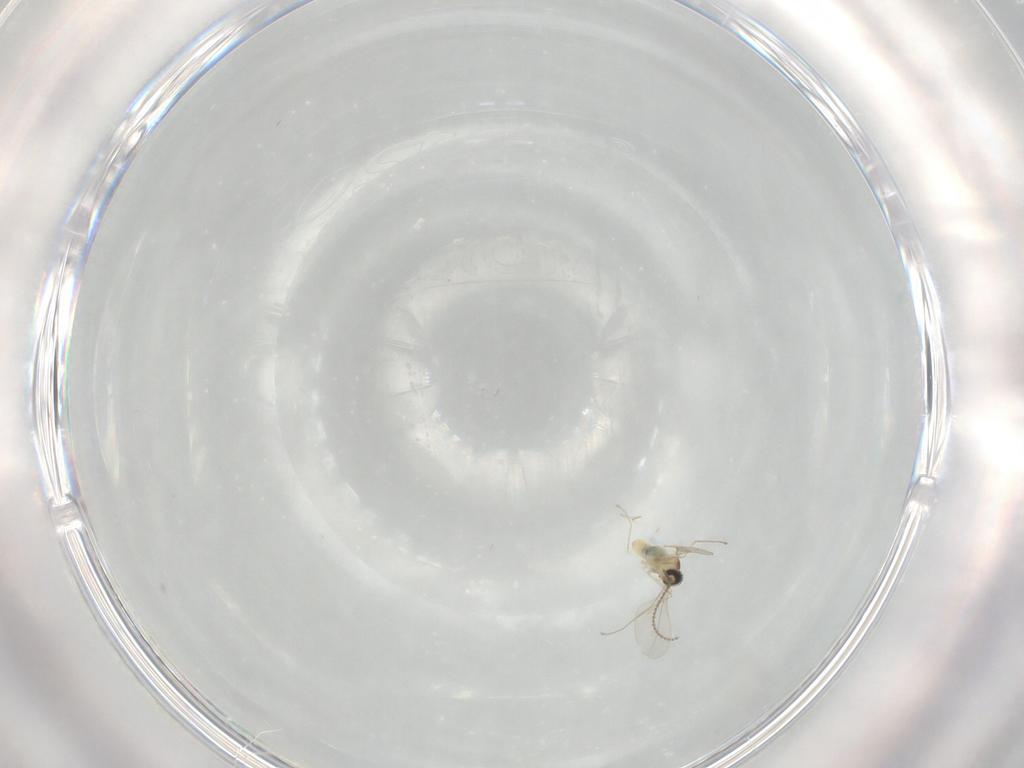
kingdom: Animalia
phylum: Arthropoda
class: Insecta
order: Diptera
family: Cecidomyiidae
